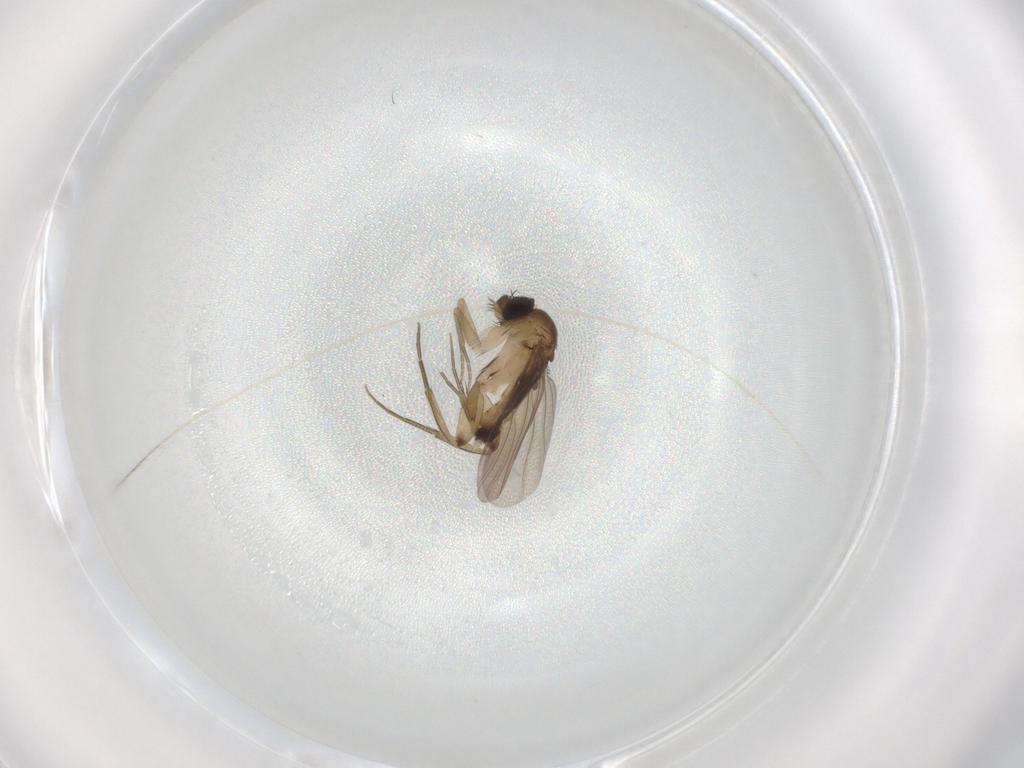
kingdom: Animalia
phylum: Arthropoda
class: Insecta
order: Diptera
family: Phoridae
